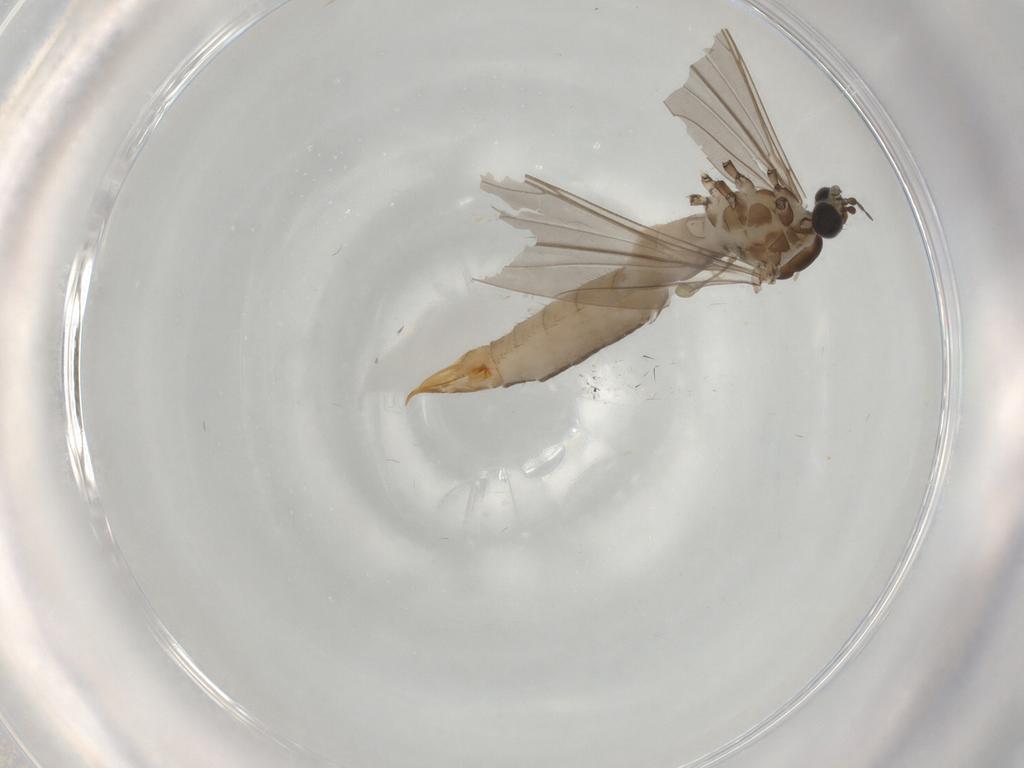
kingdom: Animalia
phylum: Arthropoda
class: Insecta
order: Diptera
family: Limoniidae
